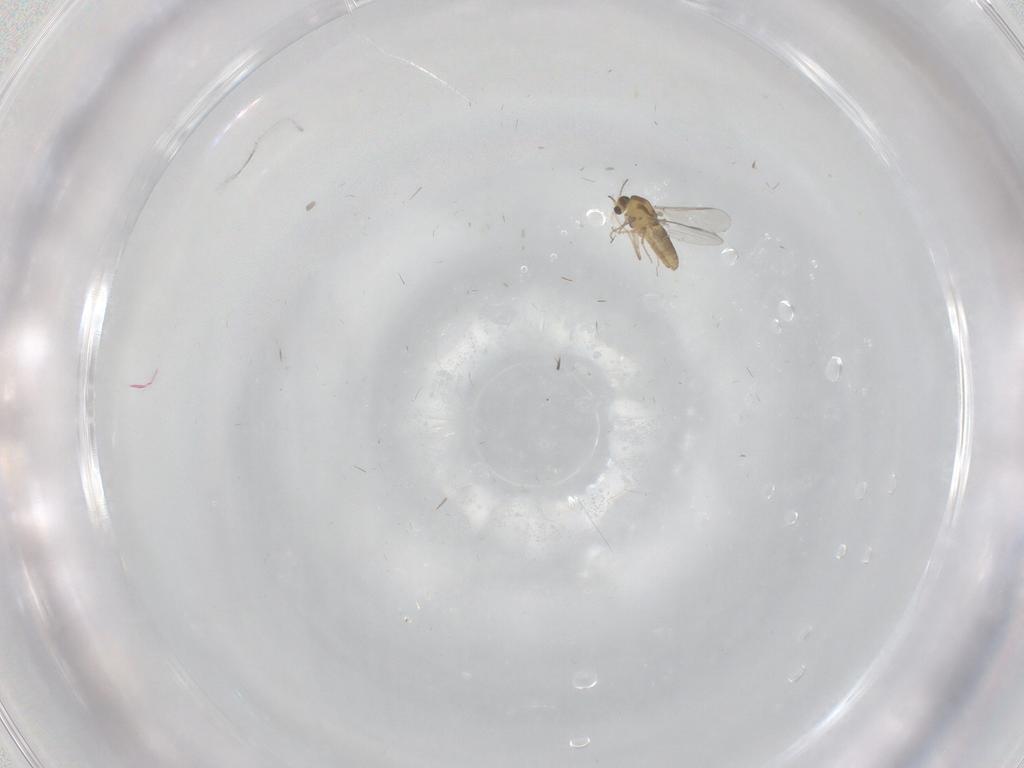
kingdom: Animalia
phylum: Arthropoda
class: Insecta
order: Diptera
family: Chironomidae
